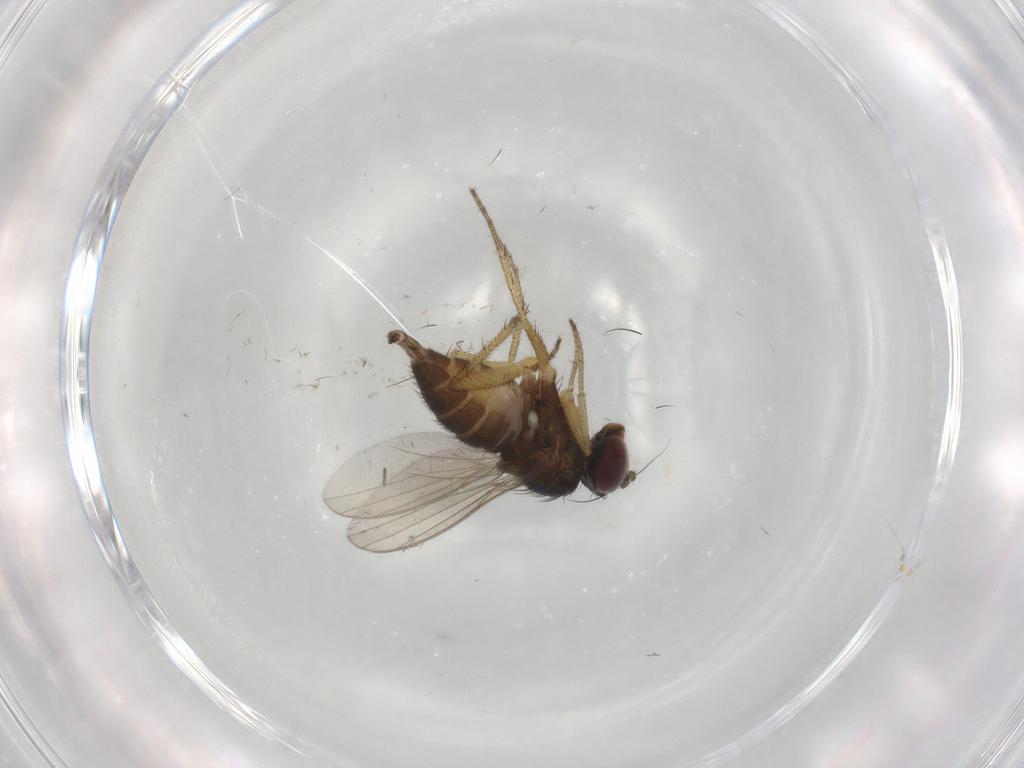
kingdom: Animalia
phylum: Arthropoda
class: Insecta
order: Diptera
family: Dolichopodidae
